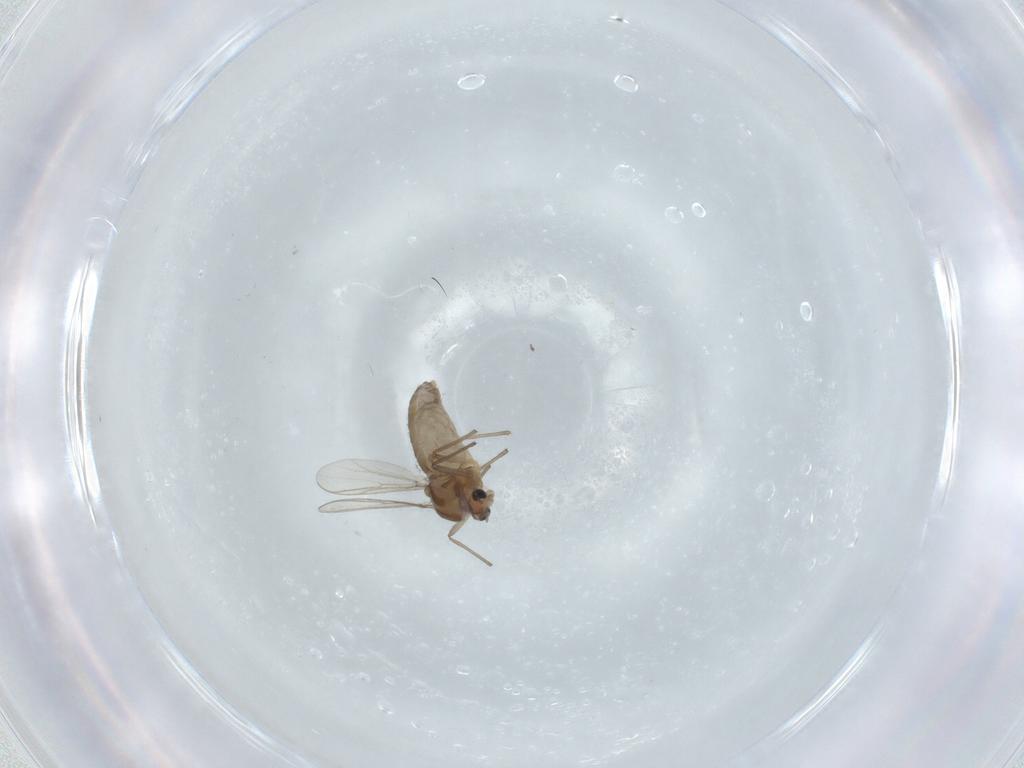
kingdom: Animalia
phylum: Arthropoda
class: Insecta
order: Diptera
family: Chironomidae
